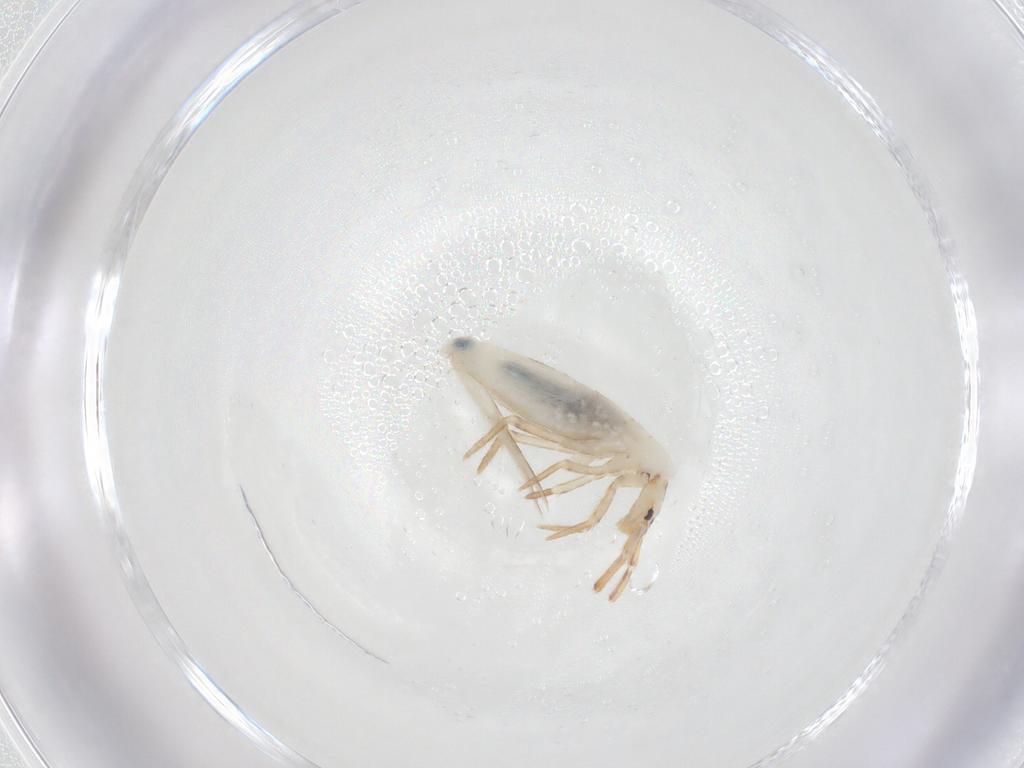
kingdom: Animalia
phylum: Arthropoda
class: Collembola
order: Entomobryomorpha
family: Entomobryidae
